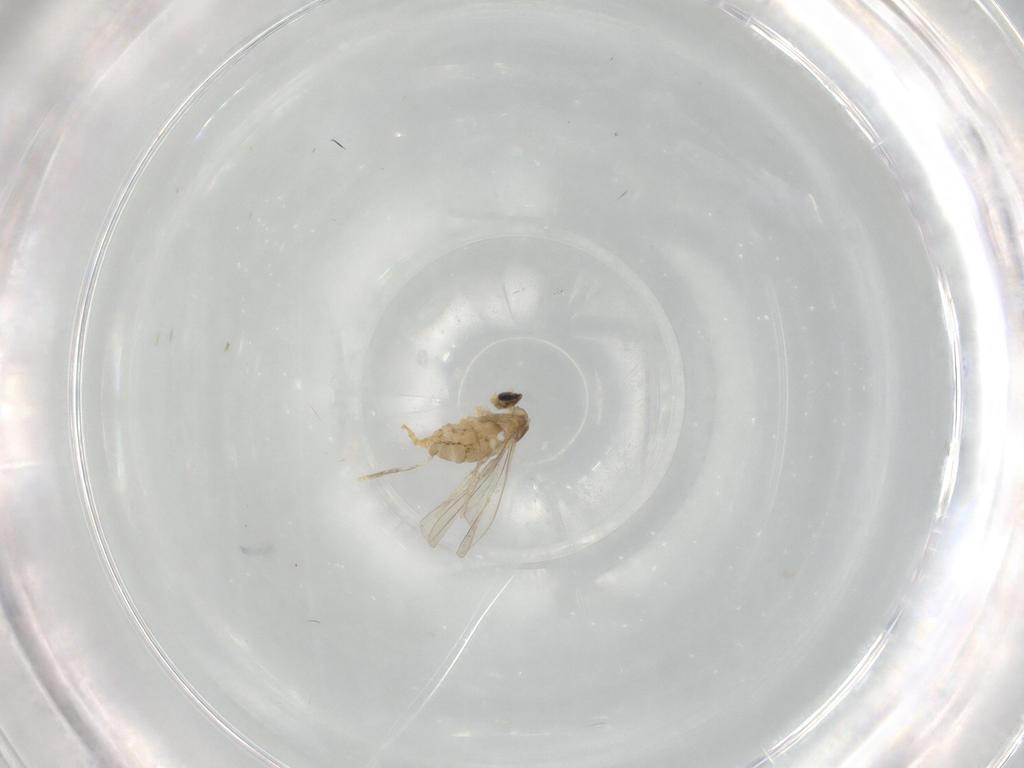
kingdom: Animalia
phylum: Arthropoda
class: Insecta
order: Diptera
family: Cecidomyiidae
